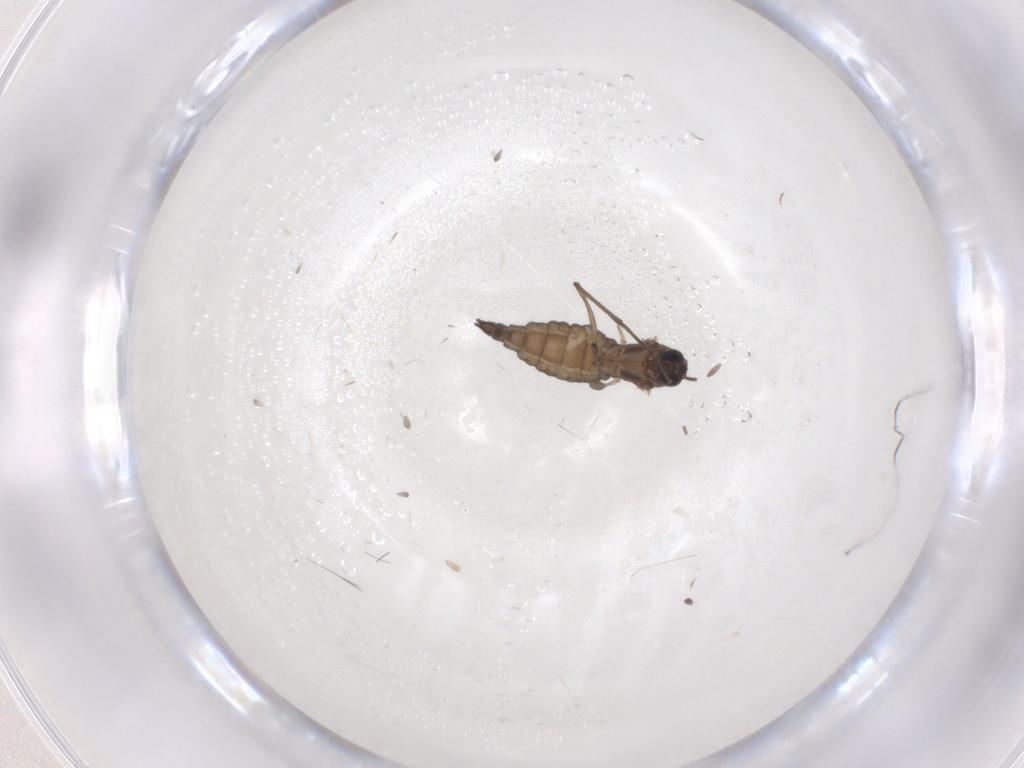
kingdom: Animalia
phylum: Arthropoda
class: Insecta
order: Diptera
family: Sciaridae
